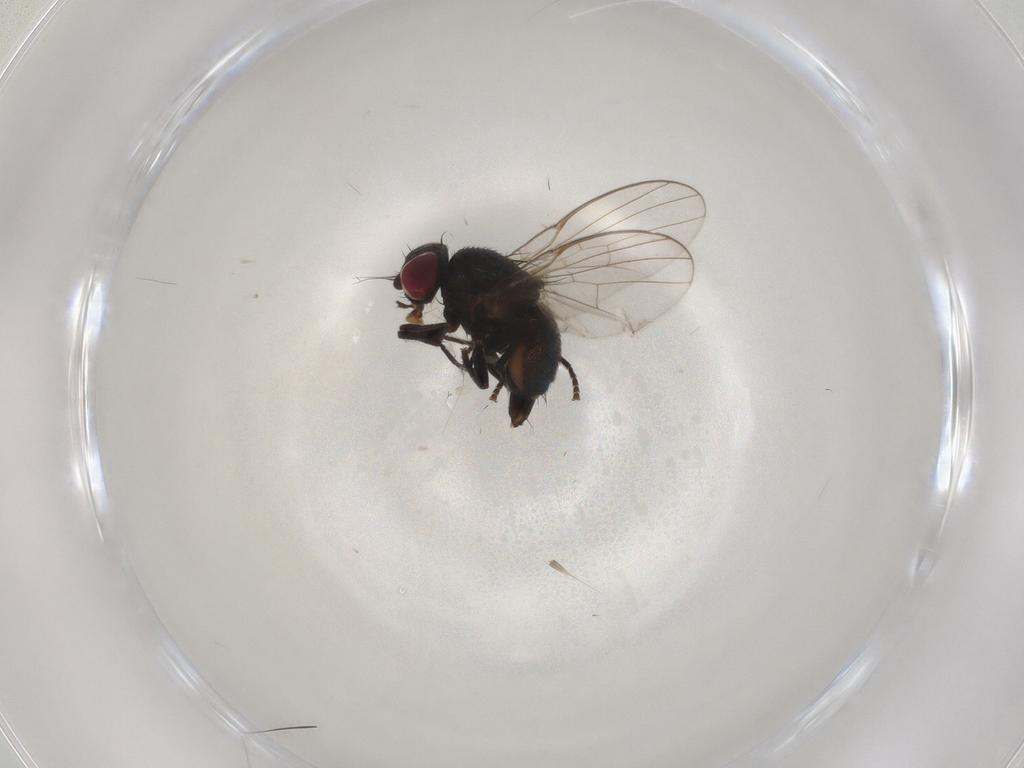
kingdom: Animalia
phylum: Arthropoda
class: Insecta
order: Diptera
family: Agromyzidae
